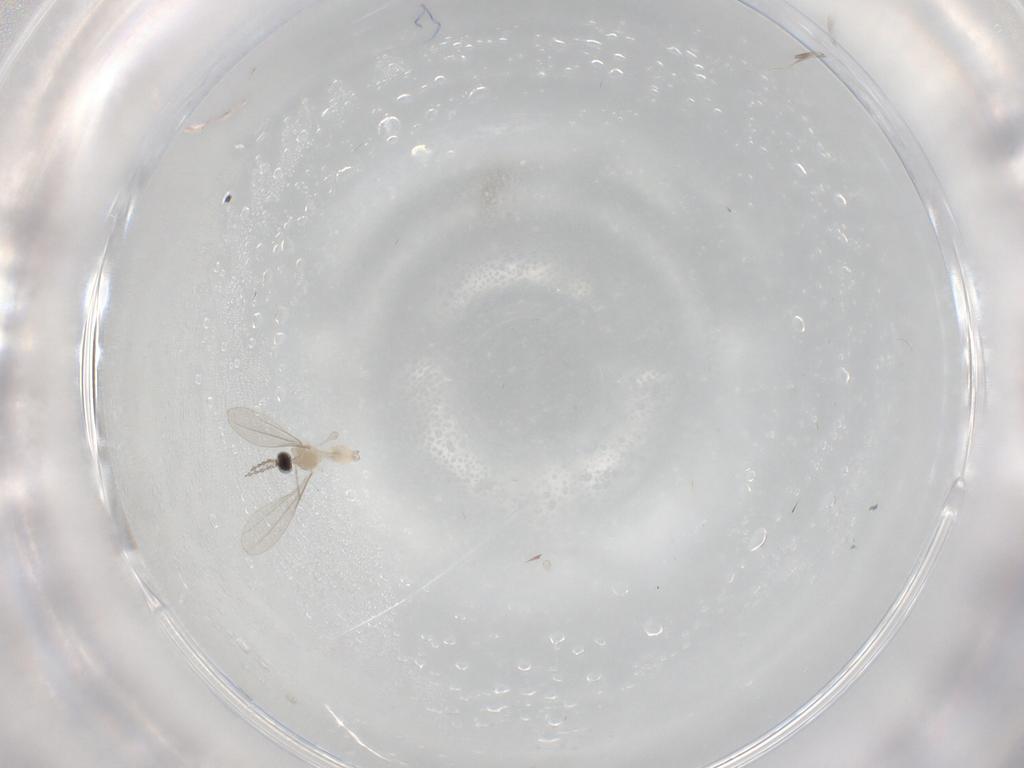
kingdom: Animalia
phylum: Arthropoda
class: Insecta
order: Diptera
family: Cecidomyiidae
